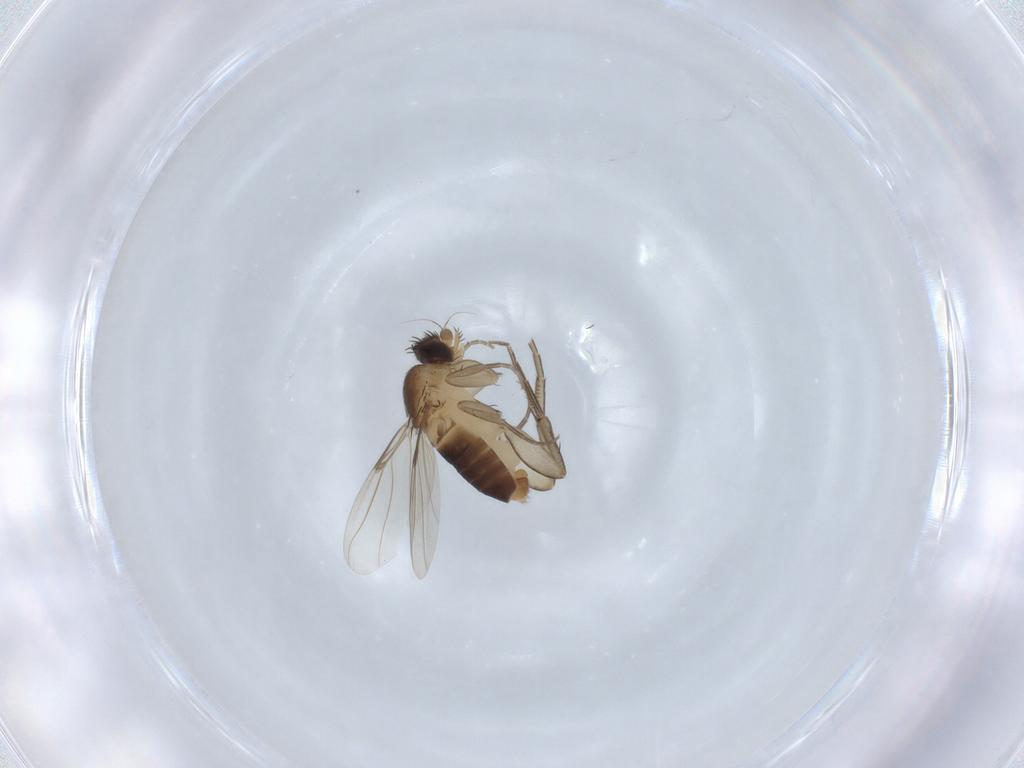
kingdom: Animalia
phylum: Arthropoda
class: Insecta
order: Diptera
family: Phoridae
